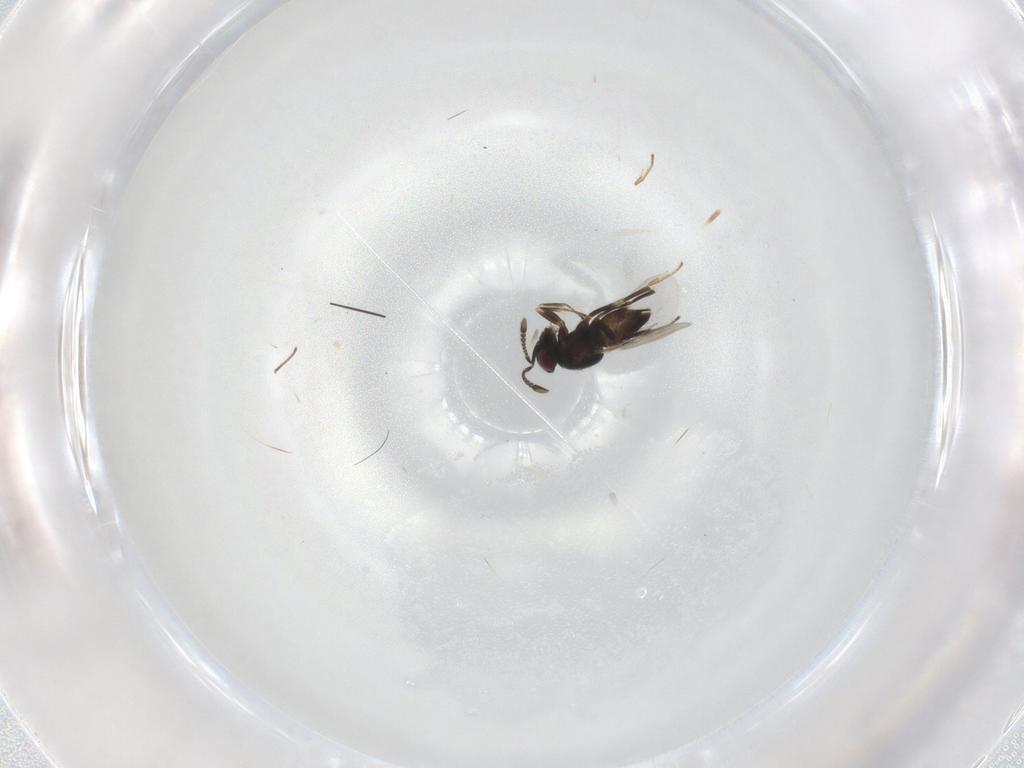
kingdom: Animalia
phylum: Arthropoda
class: Insecta
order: Hymenoptera
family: Encyrtidae
